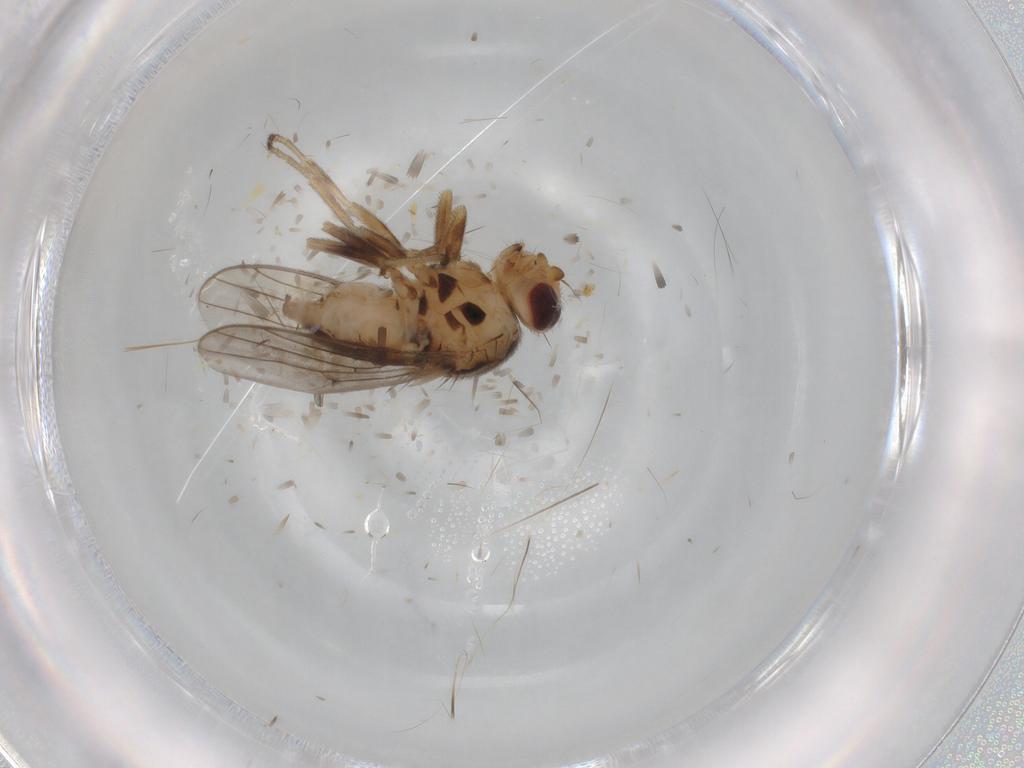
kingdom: Animalia
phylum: Arthropoda
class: Insecta
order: Diptera
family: Chloropidae
